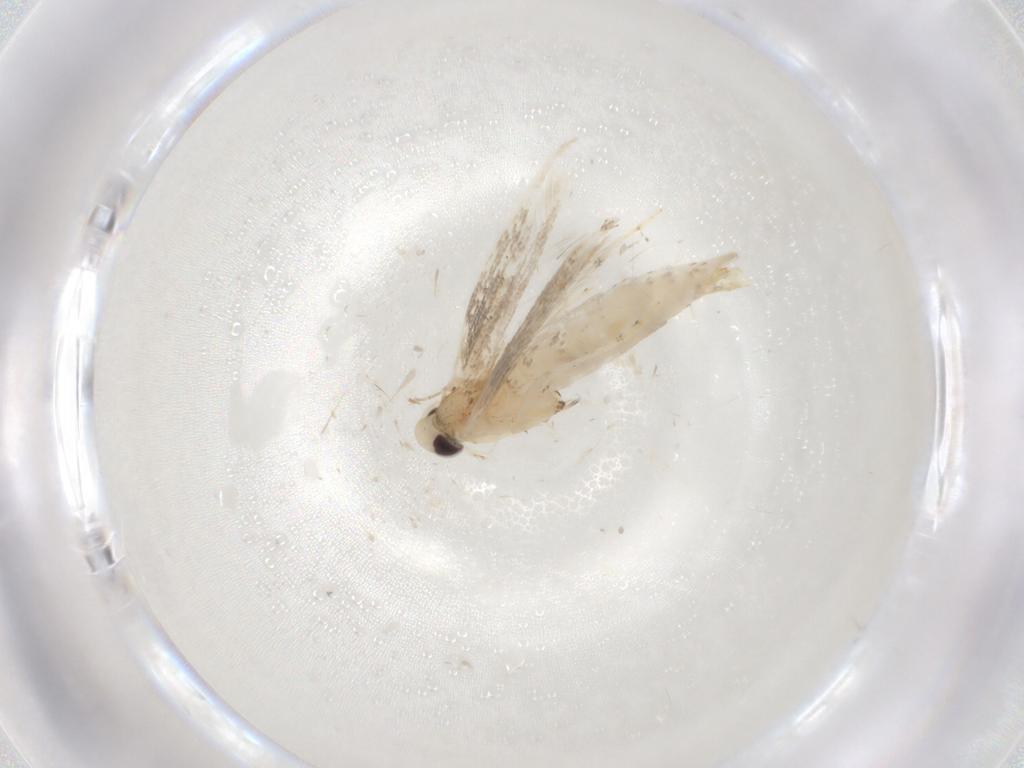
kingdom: Animalia
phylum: Arthropoda
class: Insecta
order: Lepidoptera
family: Gracillariidae
